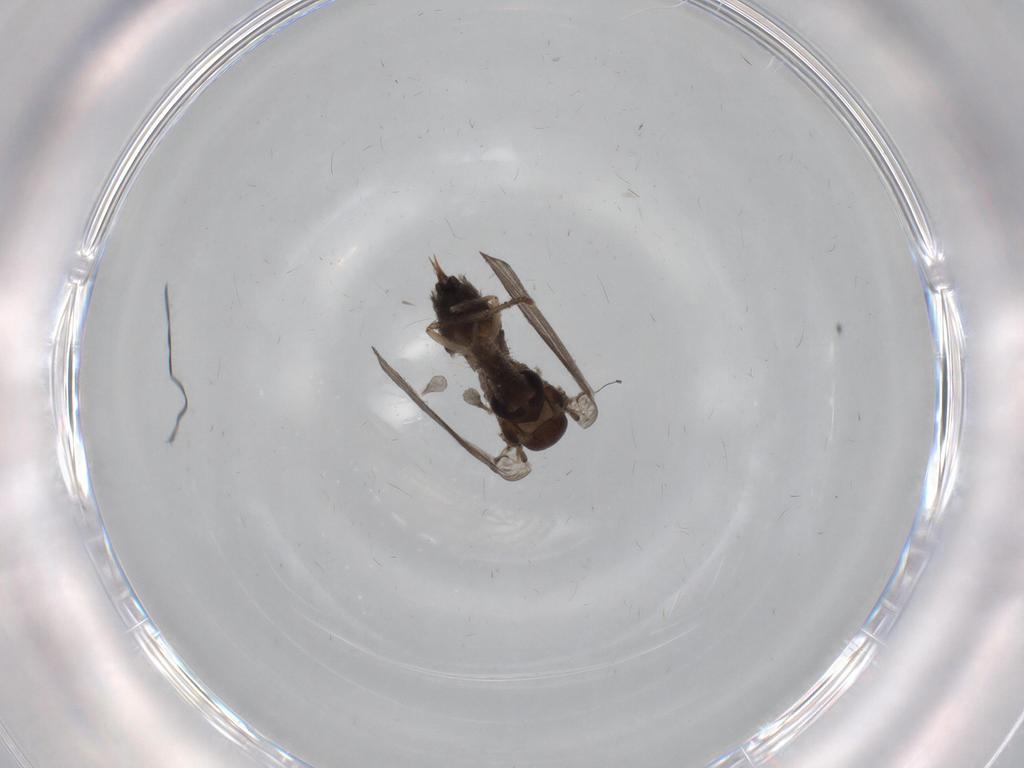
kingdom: Animalia
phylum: Arthropoda
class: Insecta
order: Diptera
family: Psychodidae
